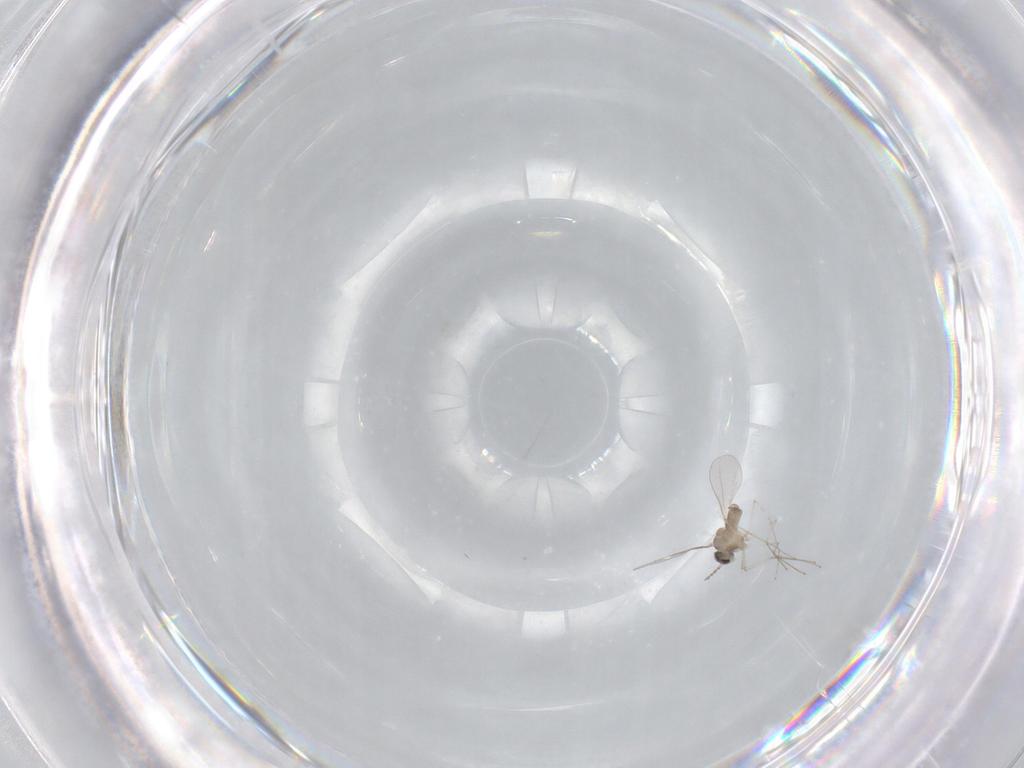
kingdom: Animalia
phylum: Arthropoda
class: Insecta
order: Diptera
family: Cecidomyiidae
